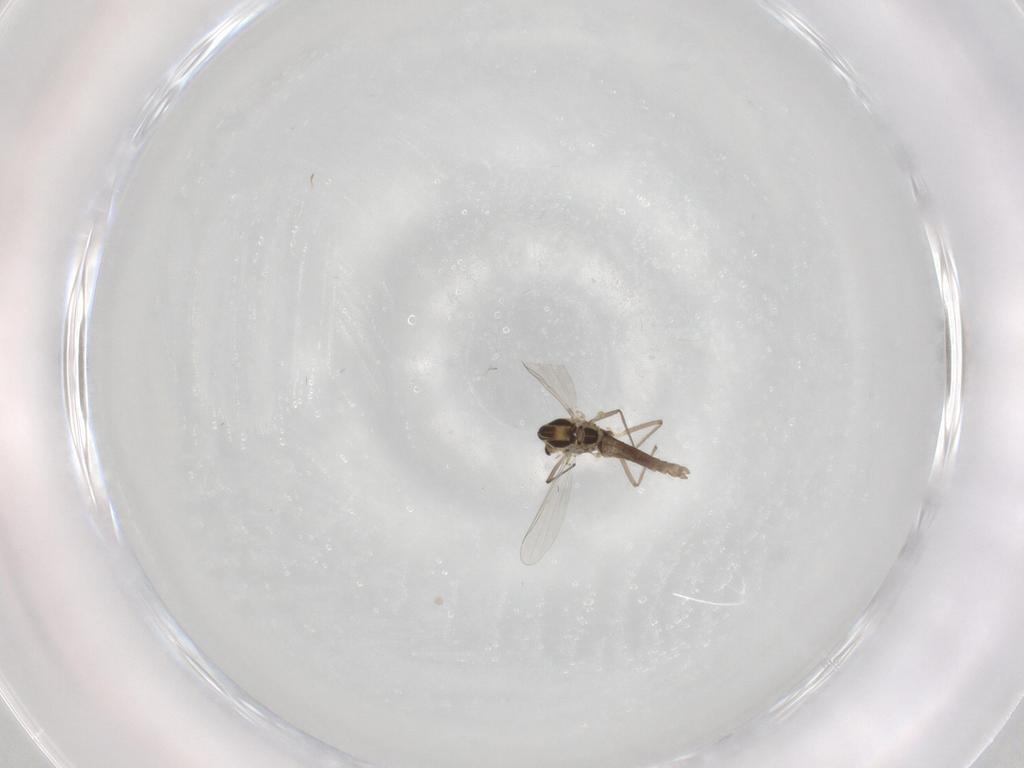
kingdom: Animalia
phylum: Arthropoda
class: Insecta
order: Diptera
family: Chironomidae
